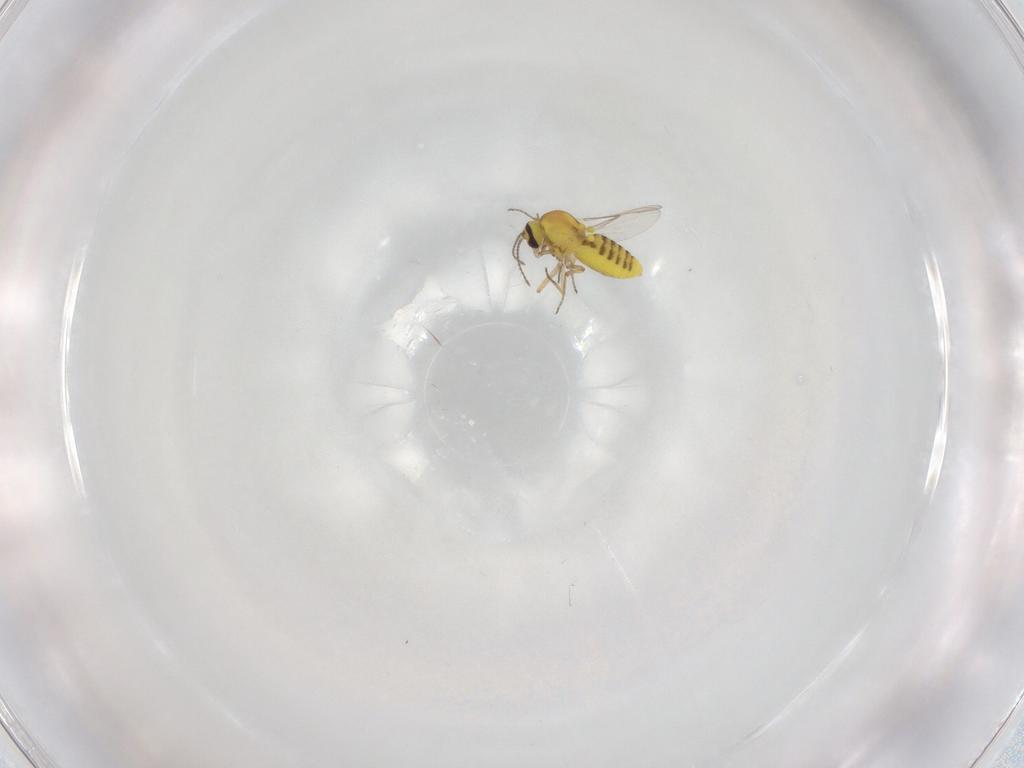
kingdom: Animalia
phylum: Arthropoda
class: Insecta
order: Diptera
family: Ceratopogonidae
